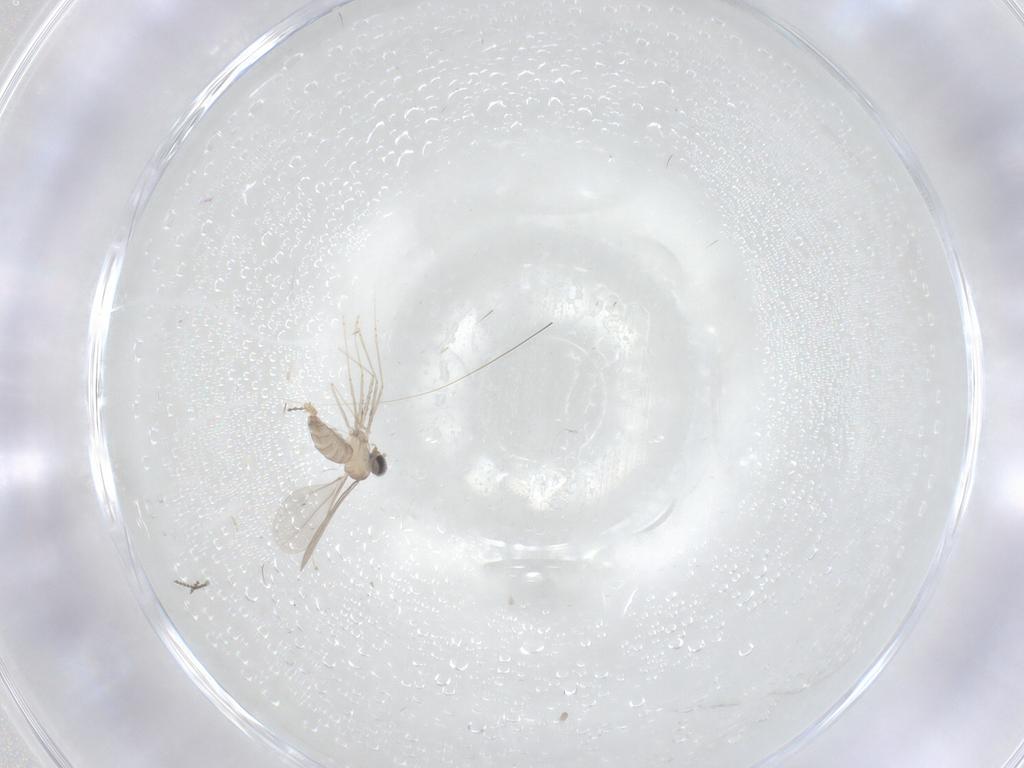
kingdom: Animalia
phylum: Arthropoda
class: Insecta
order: Diptera
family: Cecidomyiidae
